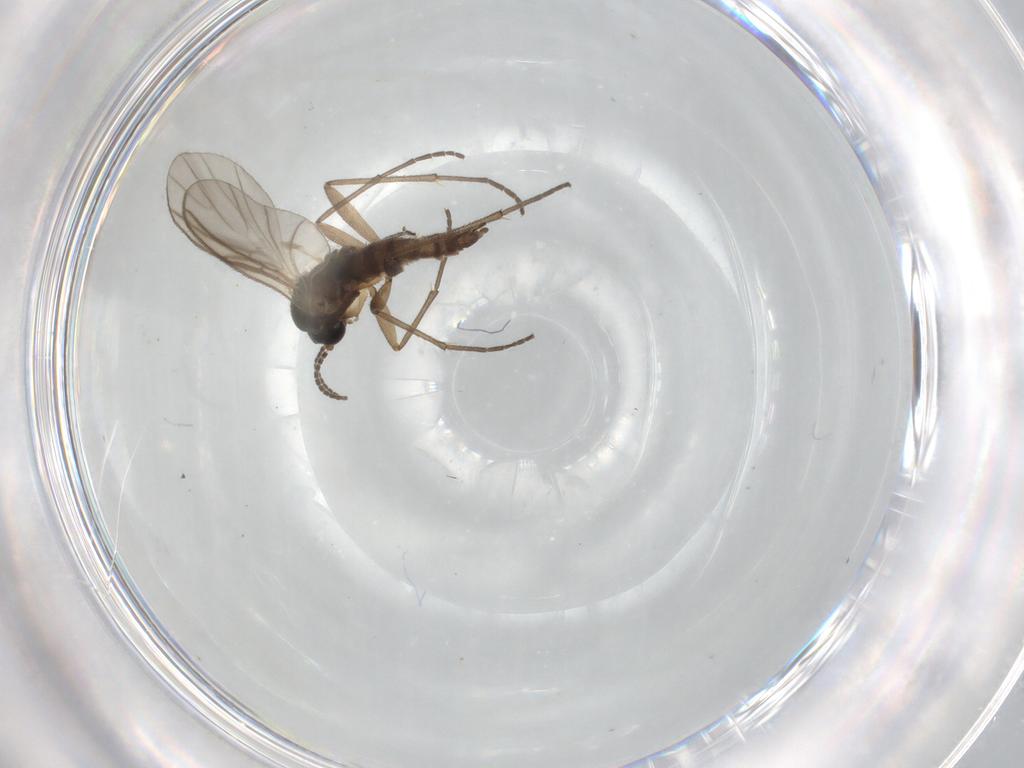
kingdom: Animalia
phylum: Arthropoda
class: Insecta
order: Diptera
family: Sciaridae
